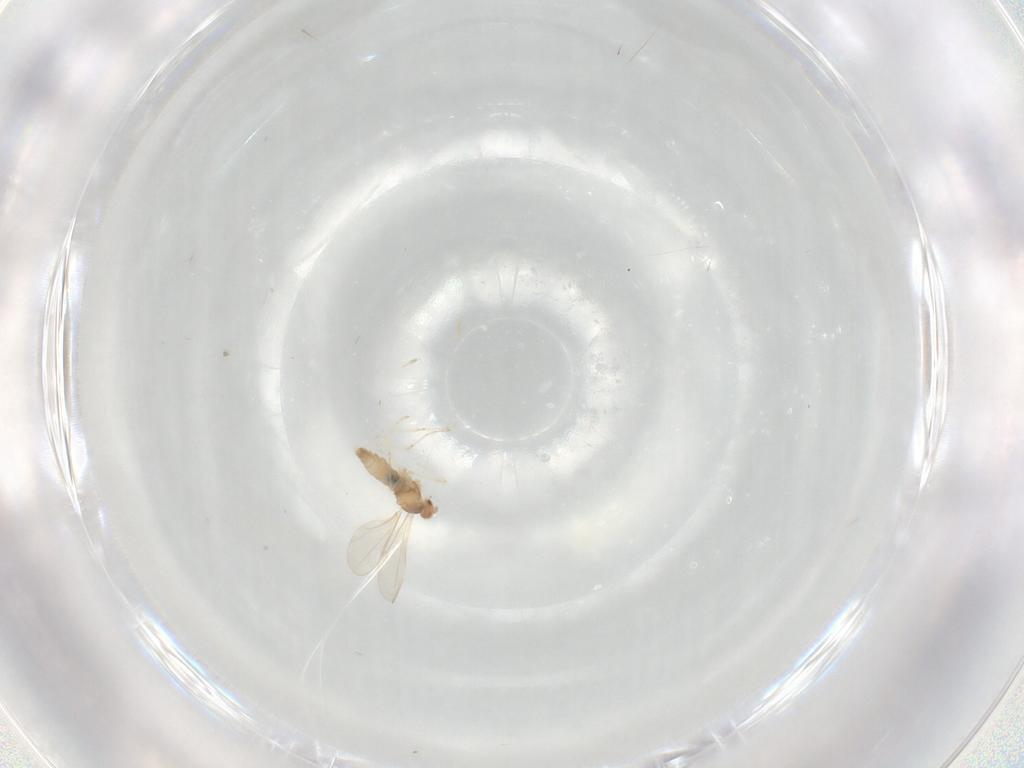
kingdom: Animalia
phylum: Arthropoda
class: Insecta
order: Diptera
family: Cecidomyiidae
